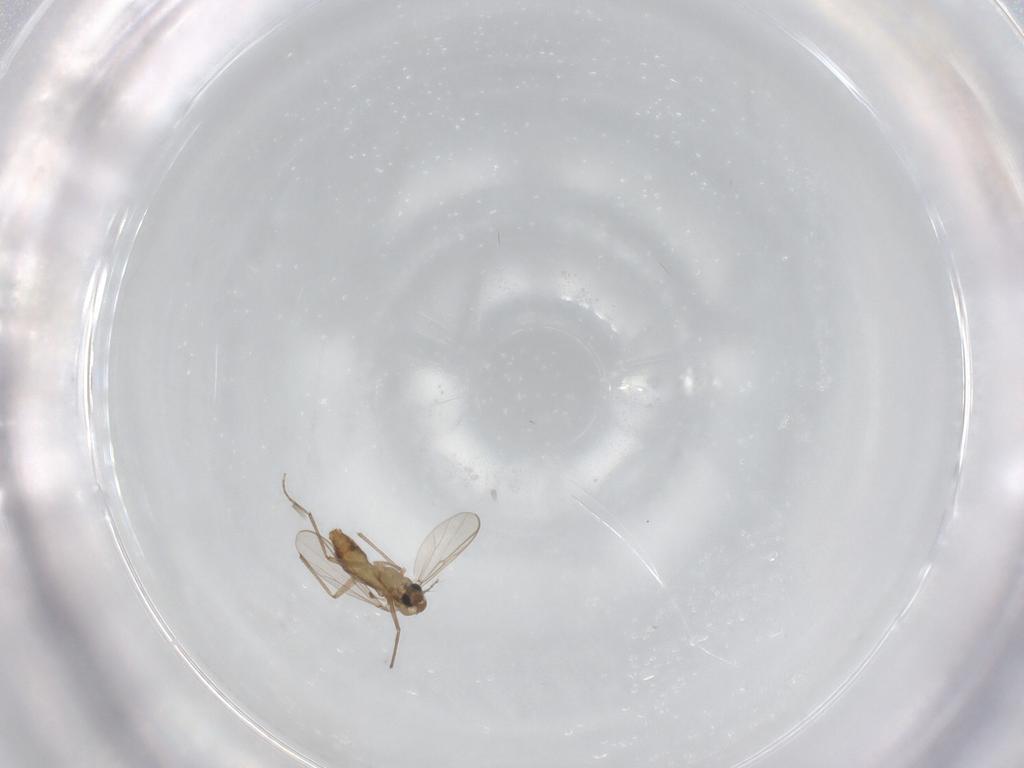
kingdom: Animalia
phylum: Arthropoda
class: Insecta
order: Diptera
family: Chironomidae
